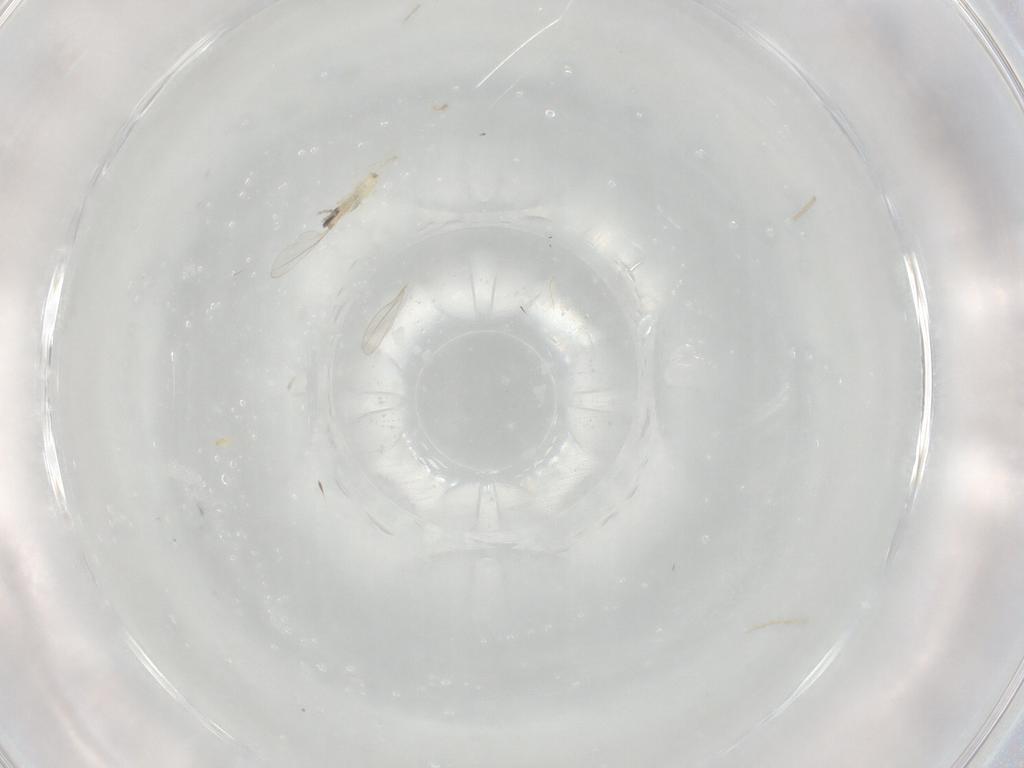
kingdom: Animalia
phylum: Arthropoda
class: Insecta
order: Diptera
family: Cecidomyiidae
